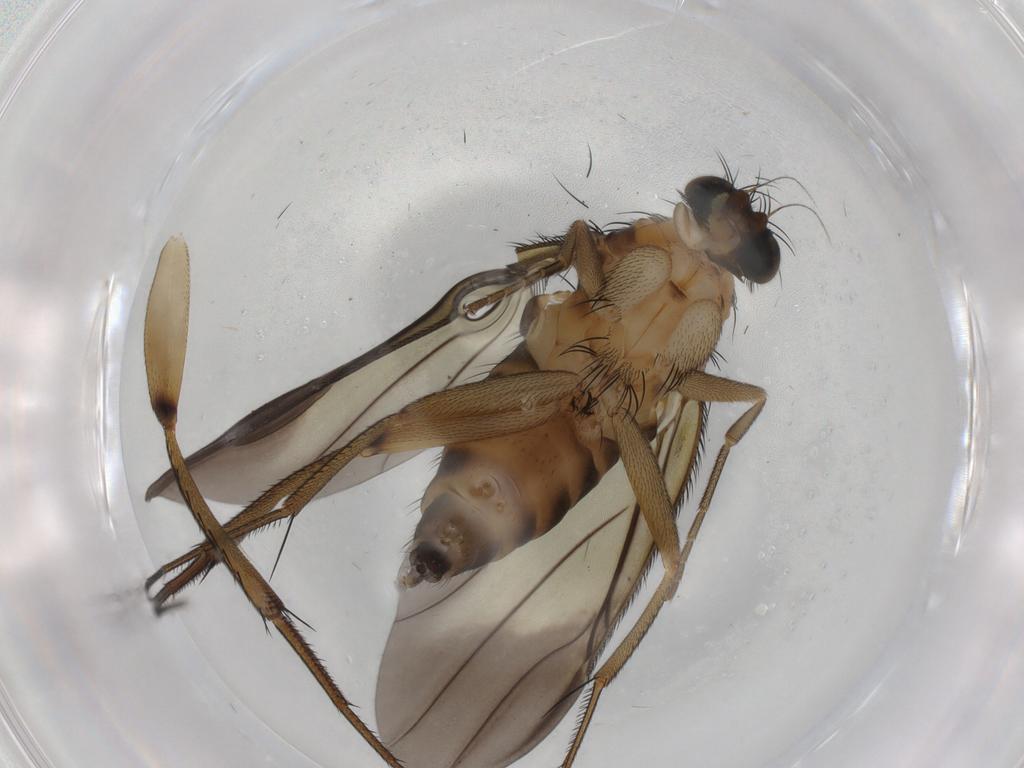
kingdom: Animalia
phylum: Arthropoda
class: Insecta
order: Diptera
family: Phoridae
